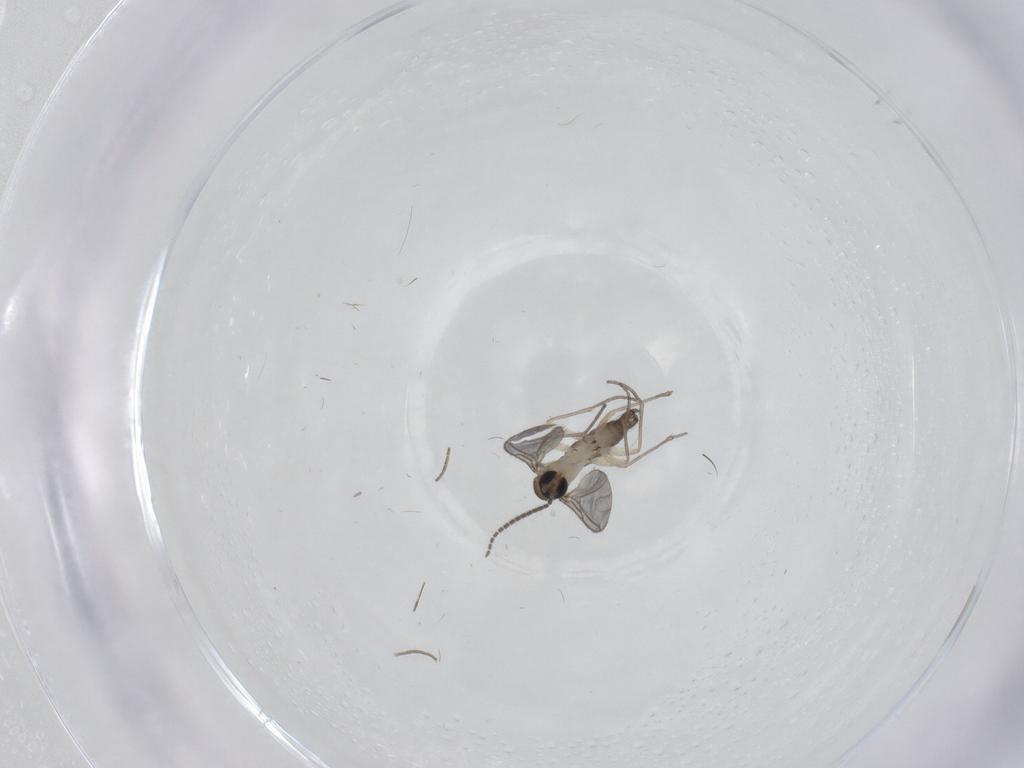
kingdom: Animalia
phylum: Arthropoda
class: Insecta
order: Diptera
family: Sciaridae
